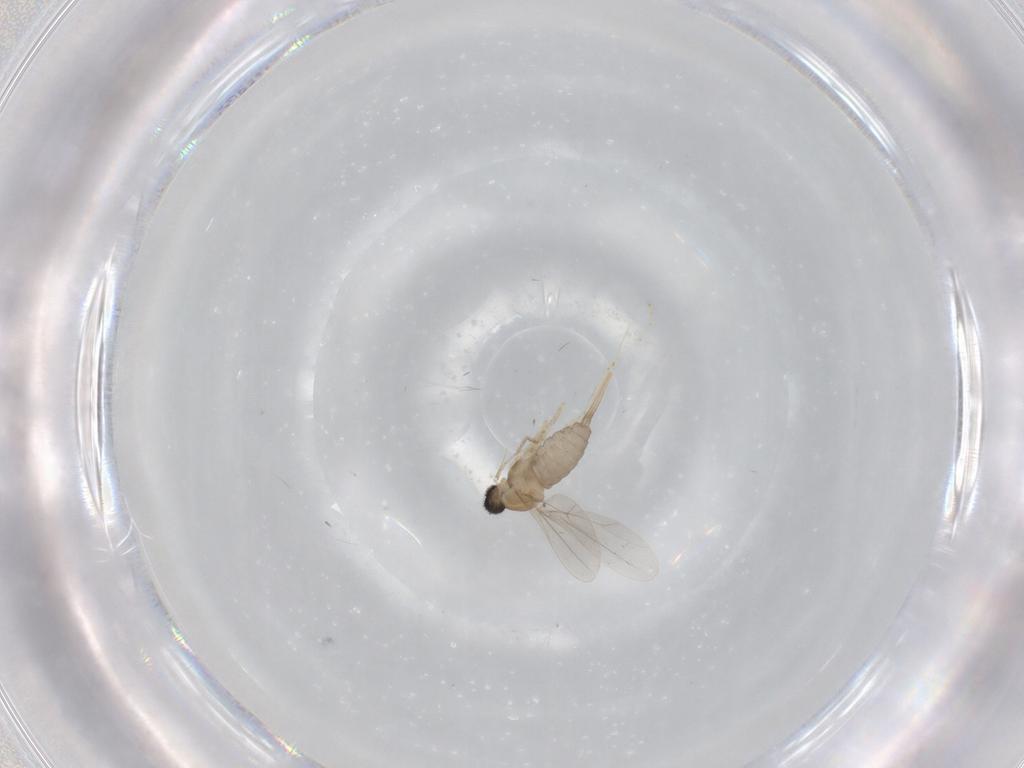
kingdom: Animalia
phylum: Arthropoda
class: Insecta
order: Diptera
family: Cecidomyiidae
